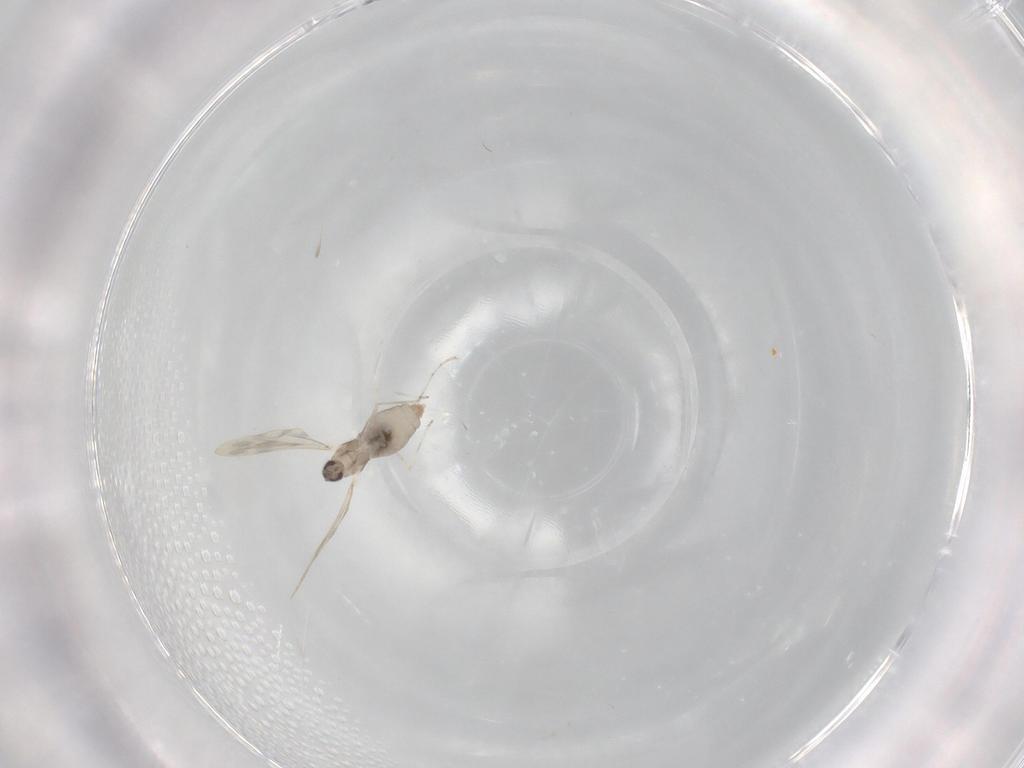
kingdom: Animalia
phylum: Arthropoda
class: Insecta
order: Diptera
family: Cecidomyiidae
